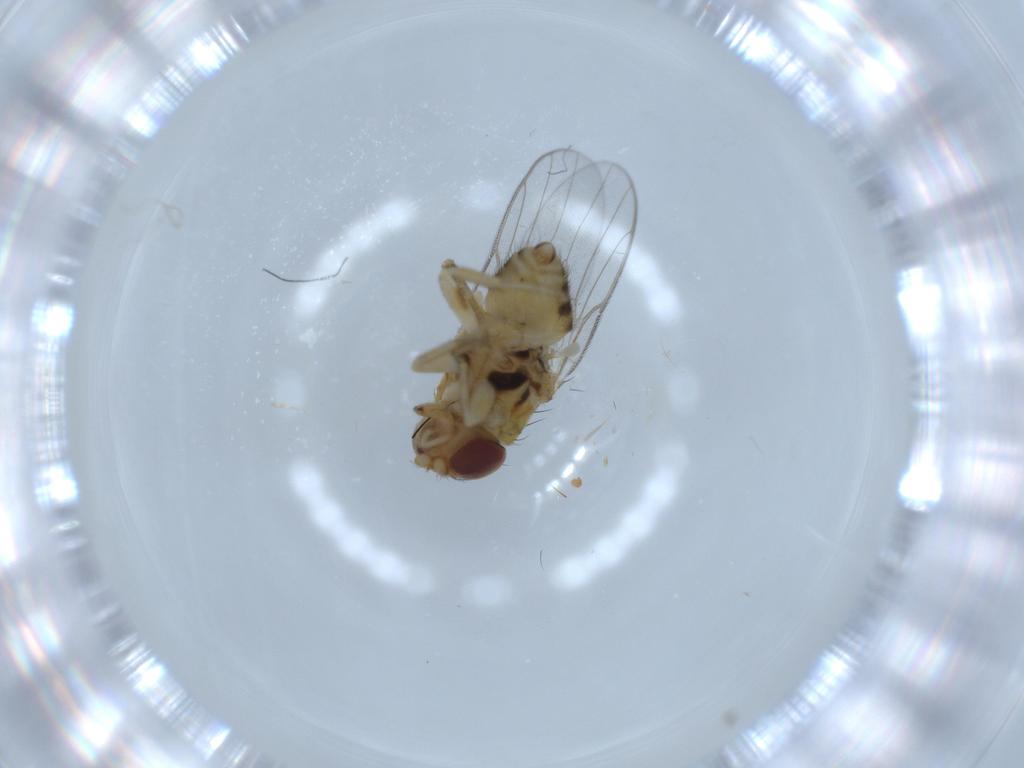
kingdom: Animalia
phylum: Arthropoda
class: Insecta
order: Diptera
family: Chloropidae
